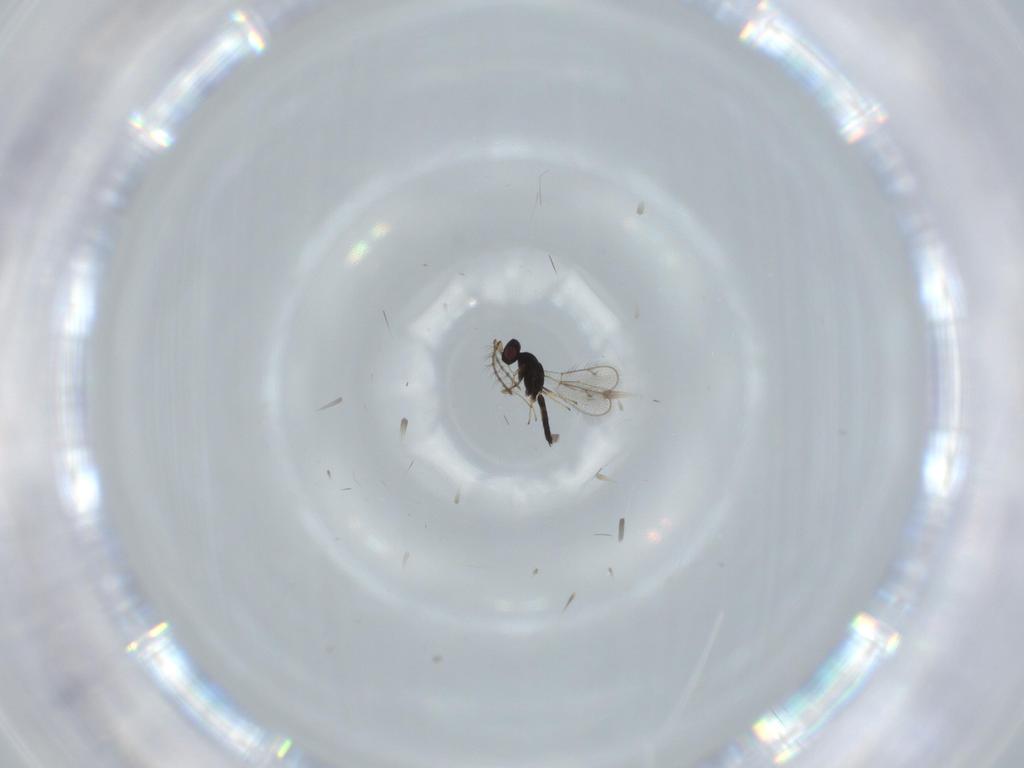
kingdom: Animalia
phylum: Arthropoda
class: Insecta
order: Hymenoptera
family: Pteromalidae
